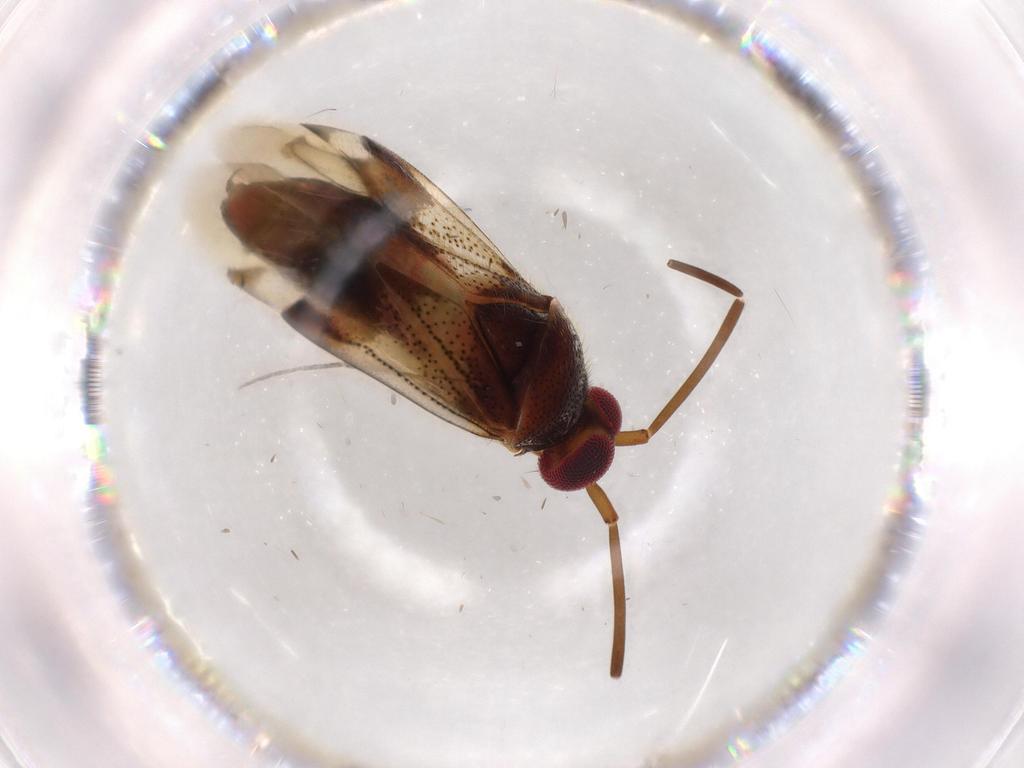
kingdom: Animalia
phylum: Arthropoda
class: Insecta
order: Hemiptera
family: Miridae
